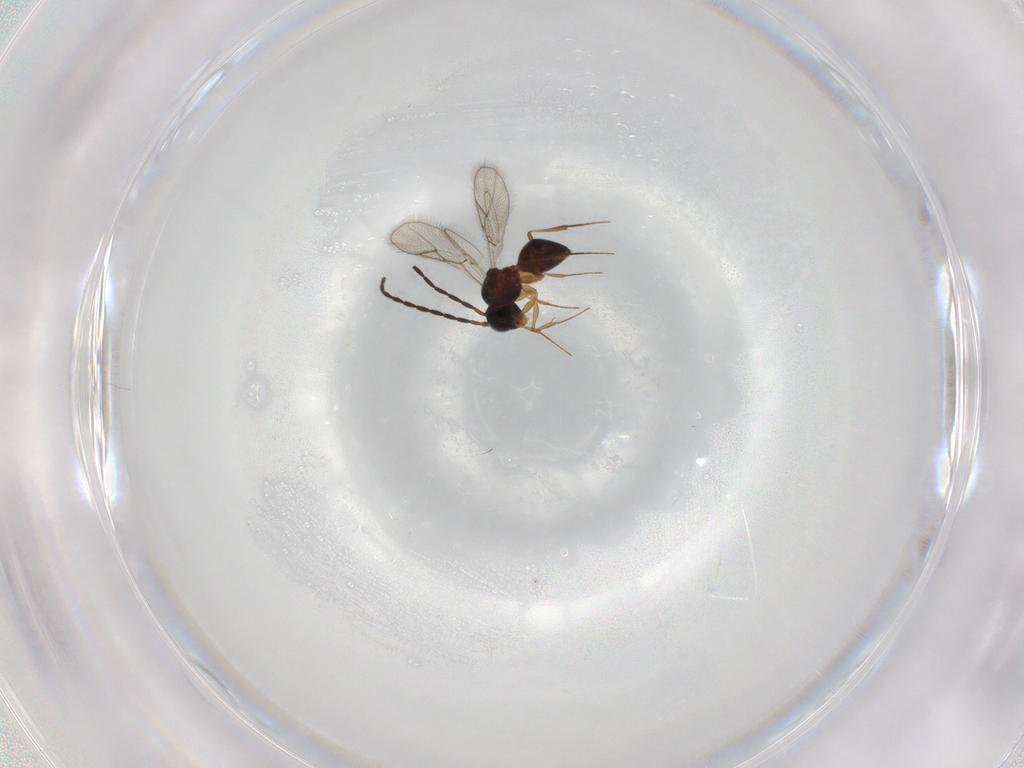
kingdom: Animalia
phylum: Arthropoda
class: Insecta
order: Hymenoptera
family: Figitidae
